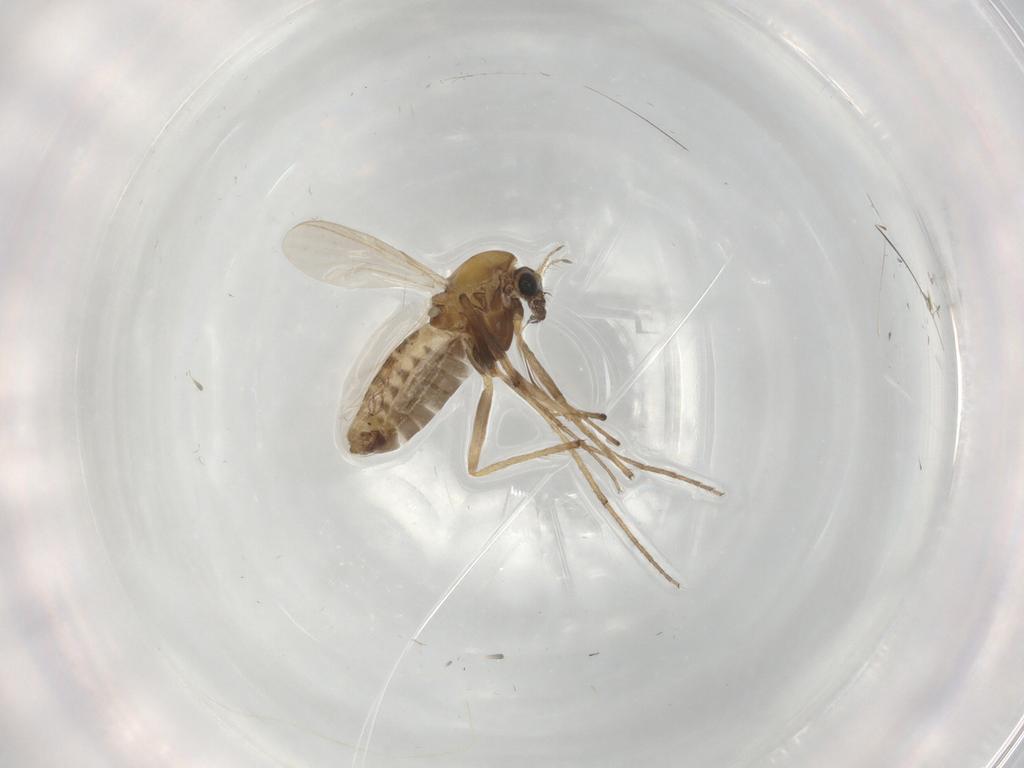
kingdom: Animalia
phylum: Arthropoda
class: Insecta
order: Diptera
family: Chironomidae
